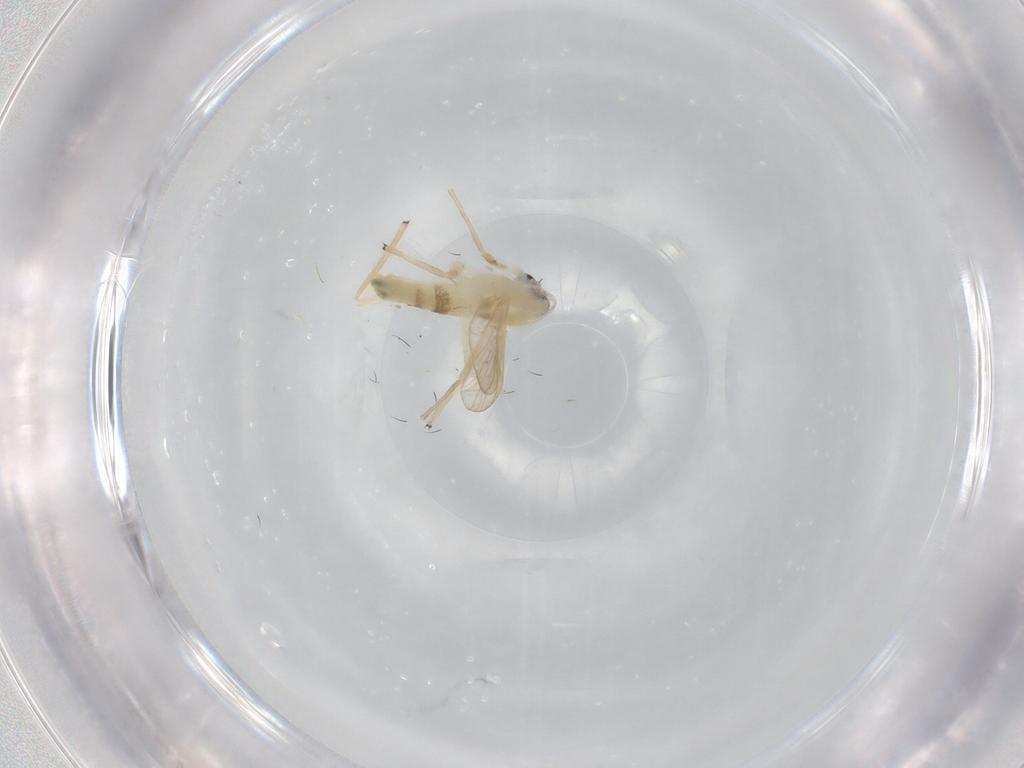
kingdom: Animalia
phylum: Arthropoda
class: Insecta
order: Diptera
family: Chironomidae
